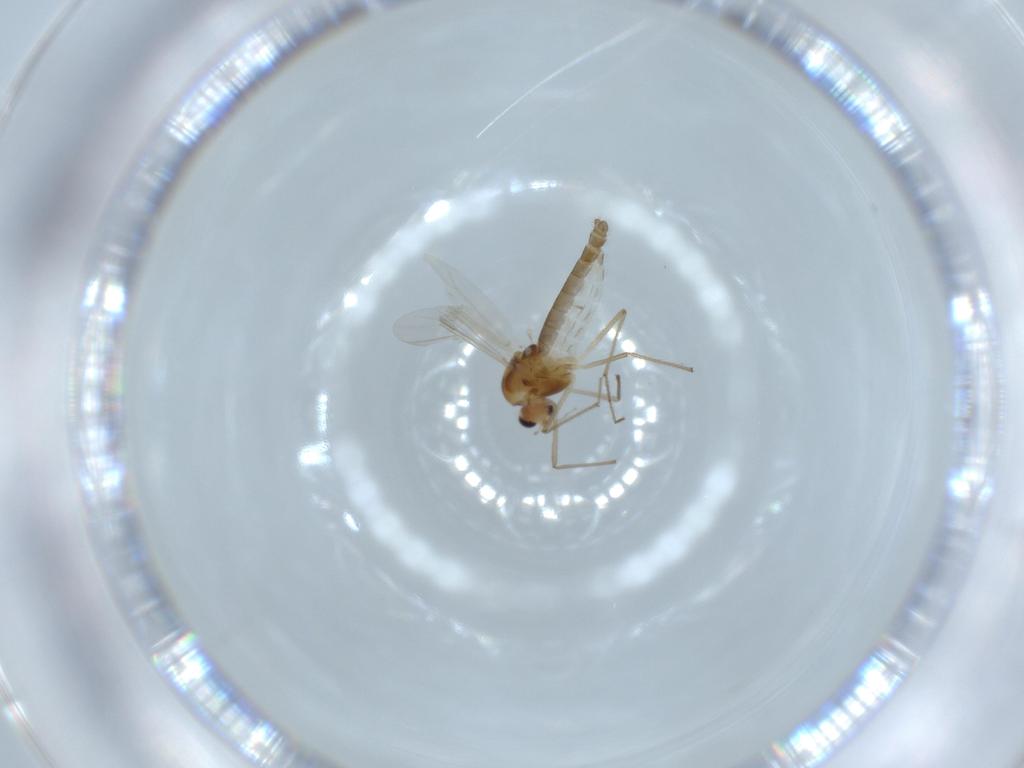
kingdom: Animalia
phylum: Arthropoda
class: Insecta
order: Diptera
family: Chironomidae
